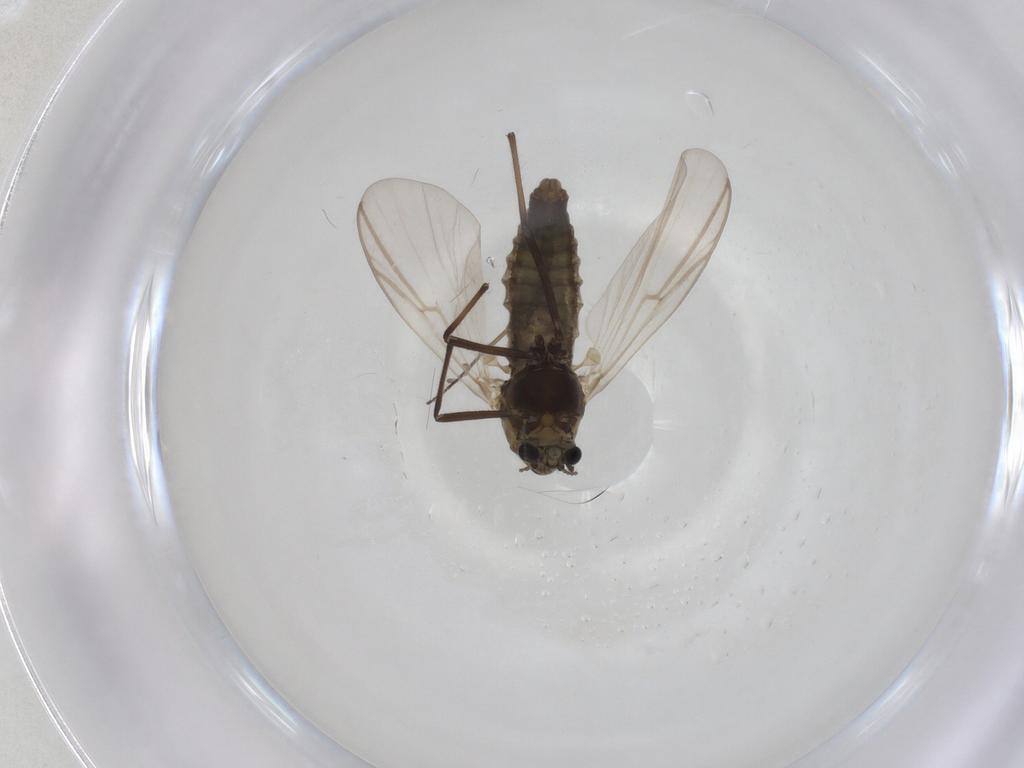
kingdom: Animalia
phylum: Arthropoda
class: Insecta
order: Diptera
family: Chironomidae
